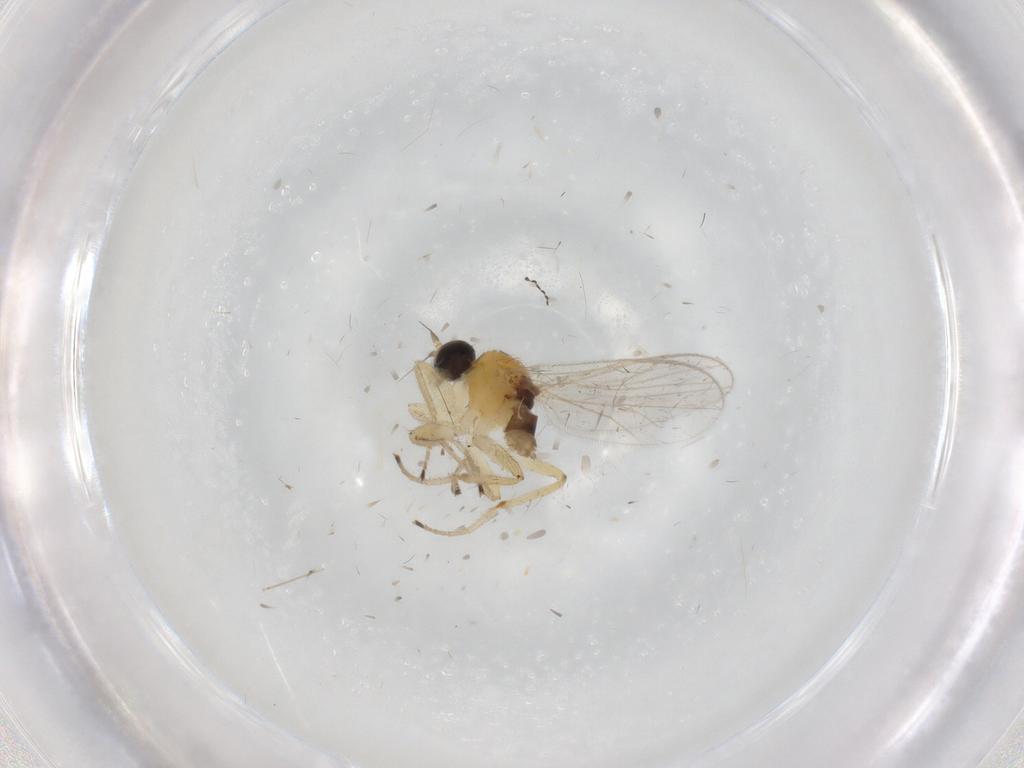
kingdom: Animalia
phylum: Arthropoda
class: Insecta
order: Diptera
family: Hybotidae
